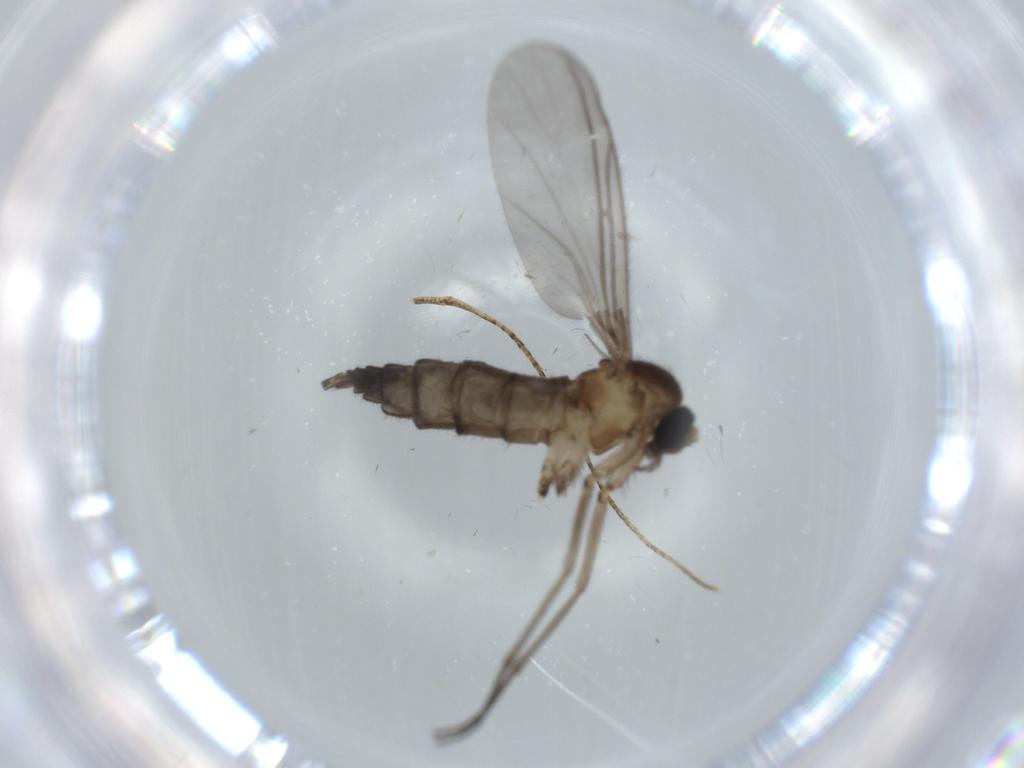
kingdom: Animalia
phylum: Arthropoda
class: Insecta
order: Diptera
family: Sciaridae
